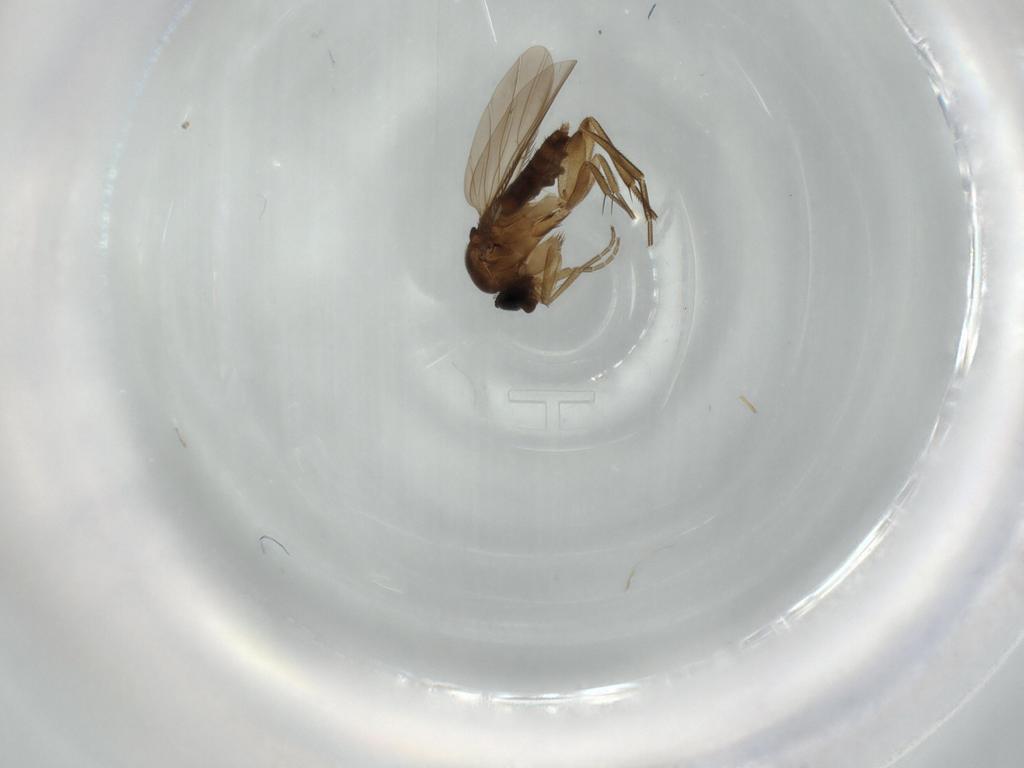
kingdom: Animalia
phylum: Arthropoda
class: Insecta
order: Diptera
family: Phoridae
